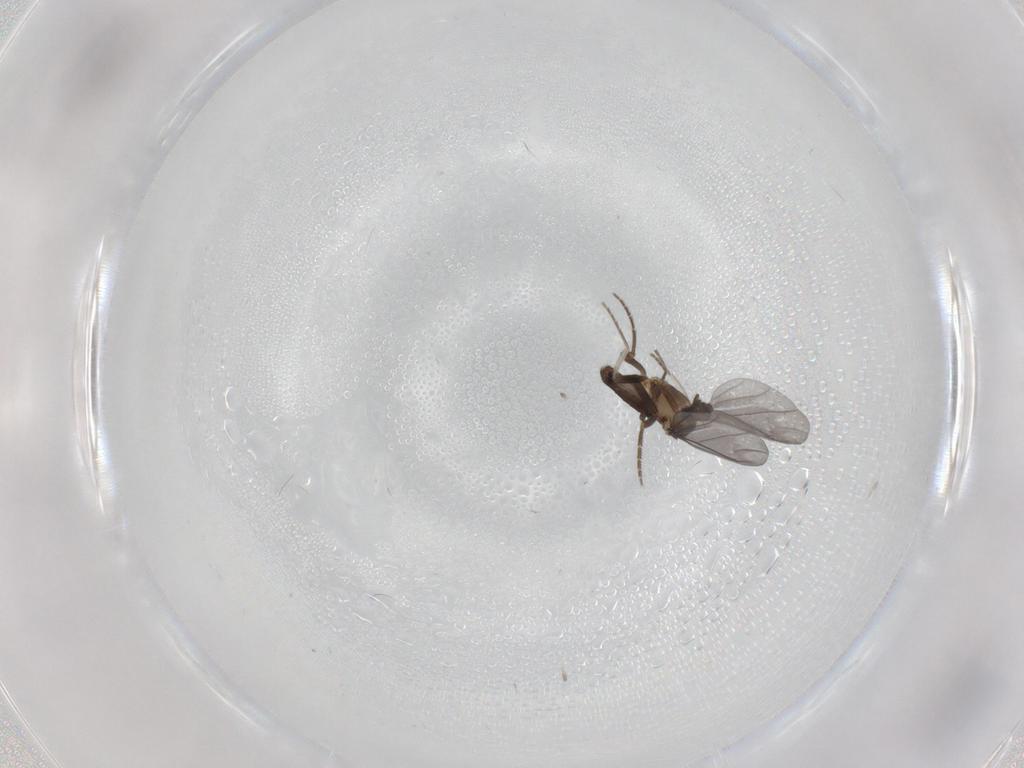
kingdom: Animalia
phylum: Arthropoda
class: Insecta
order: Diptera
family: Phoridae
